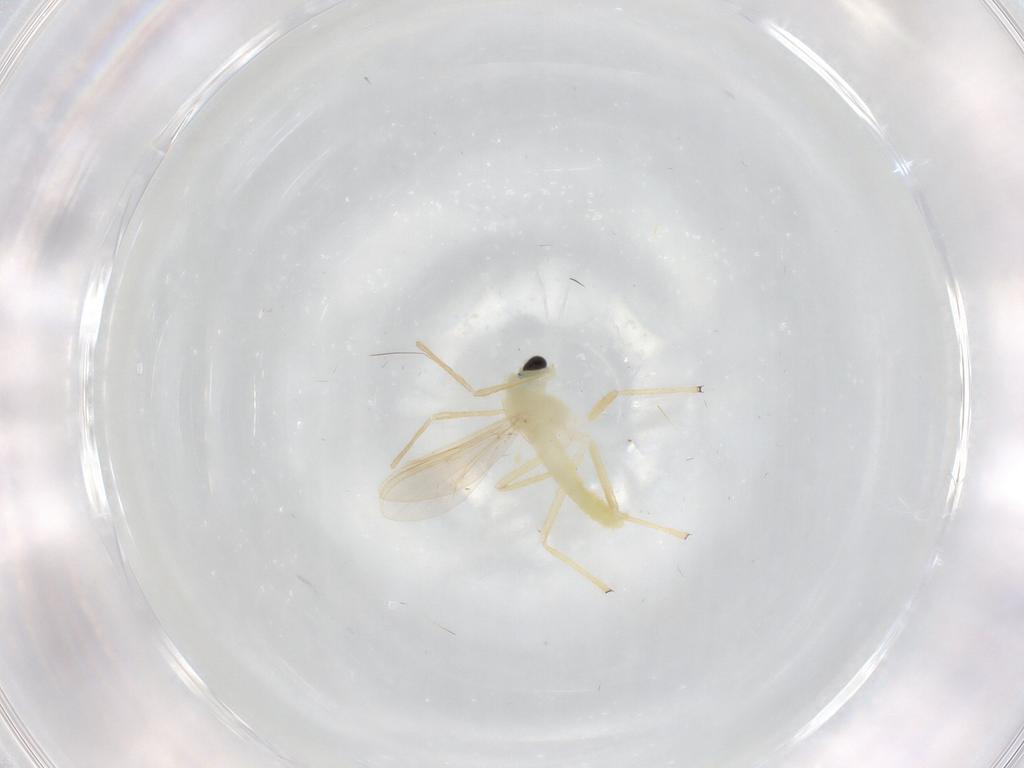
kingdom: Animalia
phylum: Arthropoda
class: Insecta
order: Diptera
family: Chironomidae
